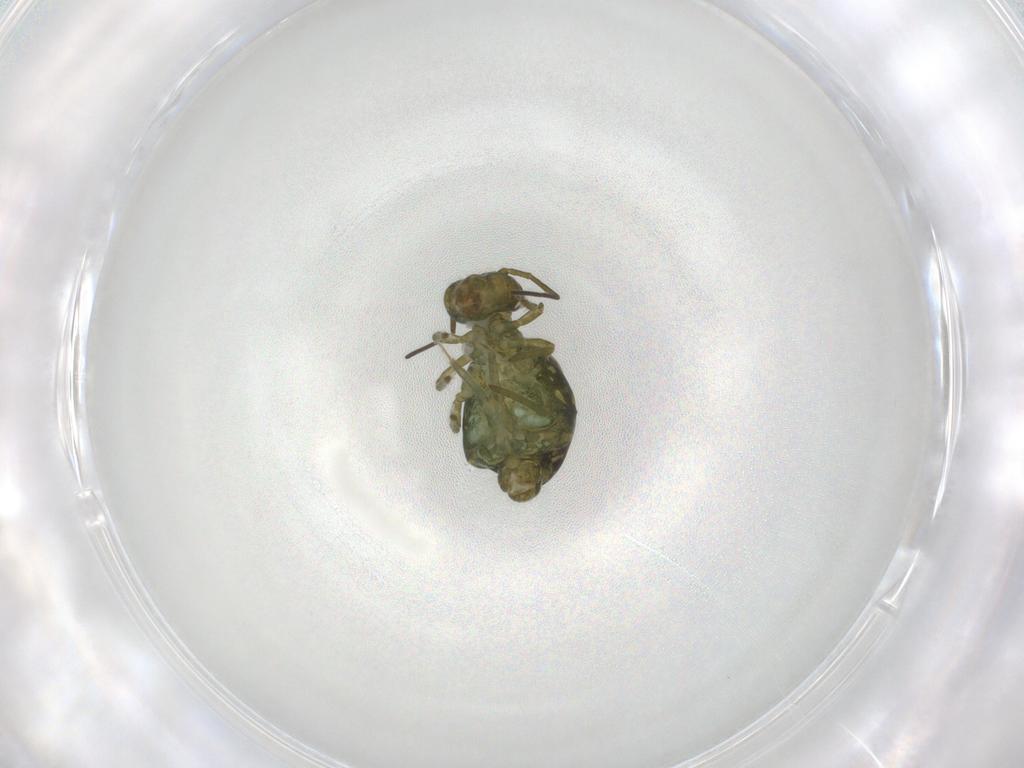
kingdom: Animalia
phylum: Arthropoda
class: Collembola
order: Symphypleona
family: Sminthuridae
